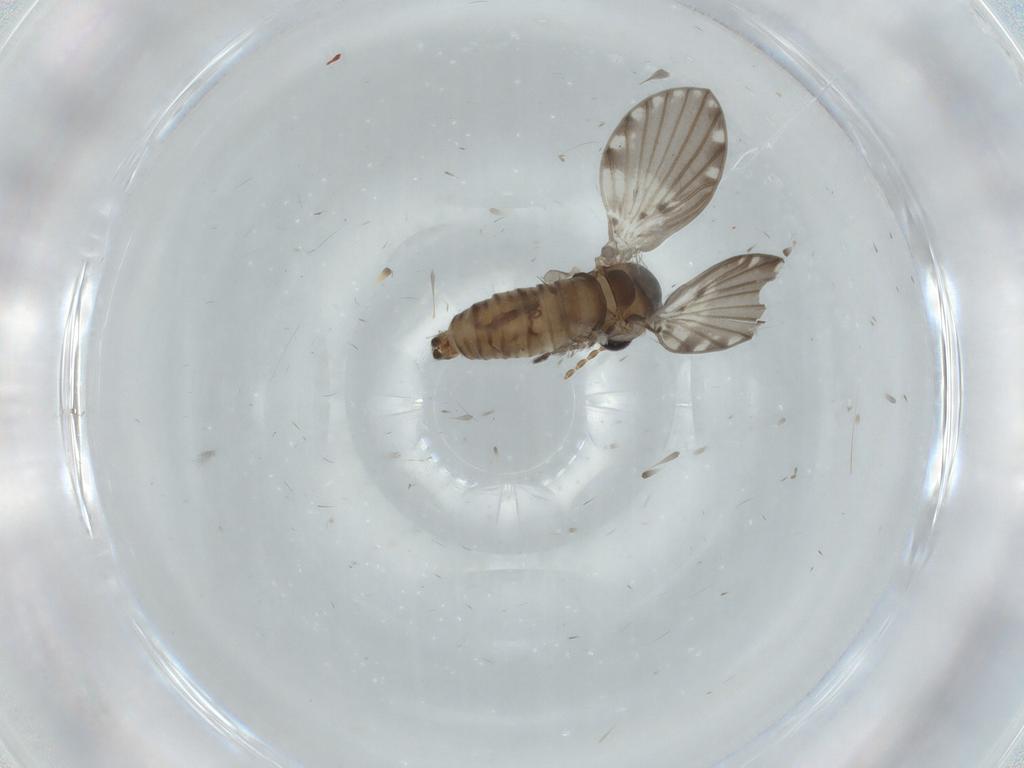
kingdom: Animalia
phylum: Arthropoda
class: Insecta
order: Diptera
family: Psychodidae
